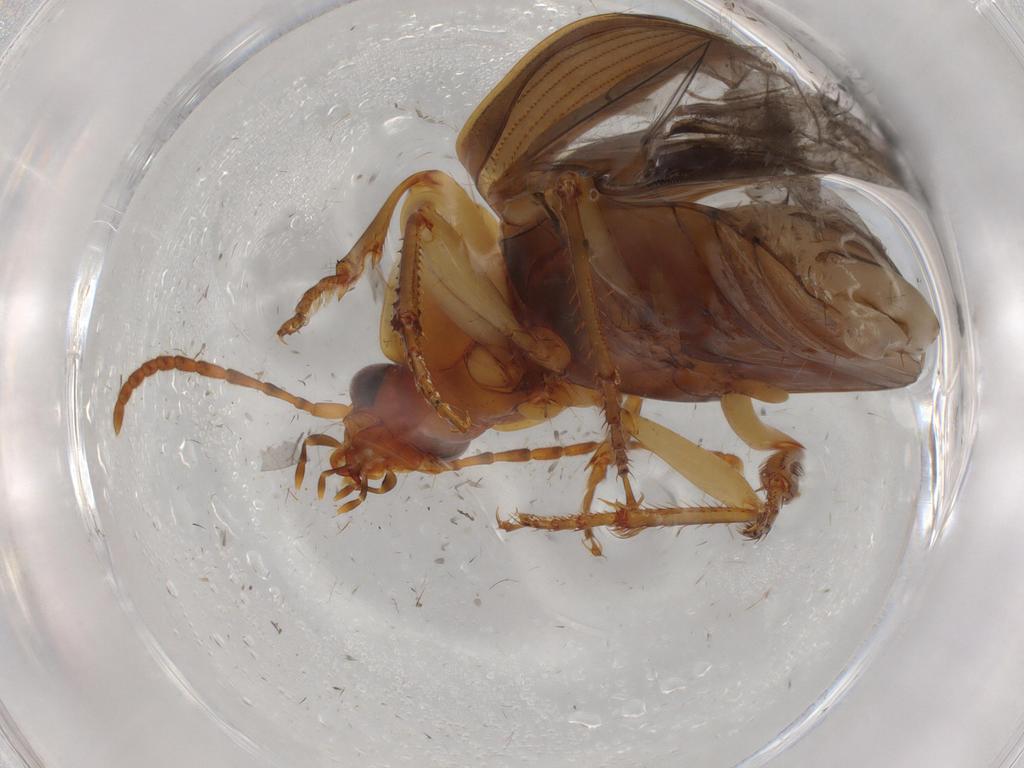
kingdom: Animalia
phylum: Arthropoda
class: Insecta
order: Coleoptera
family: Carabidae
